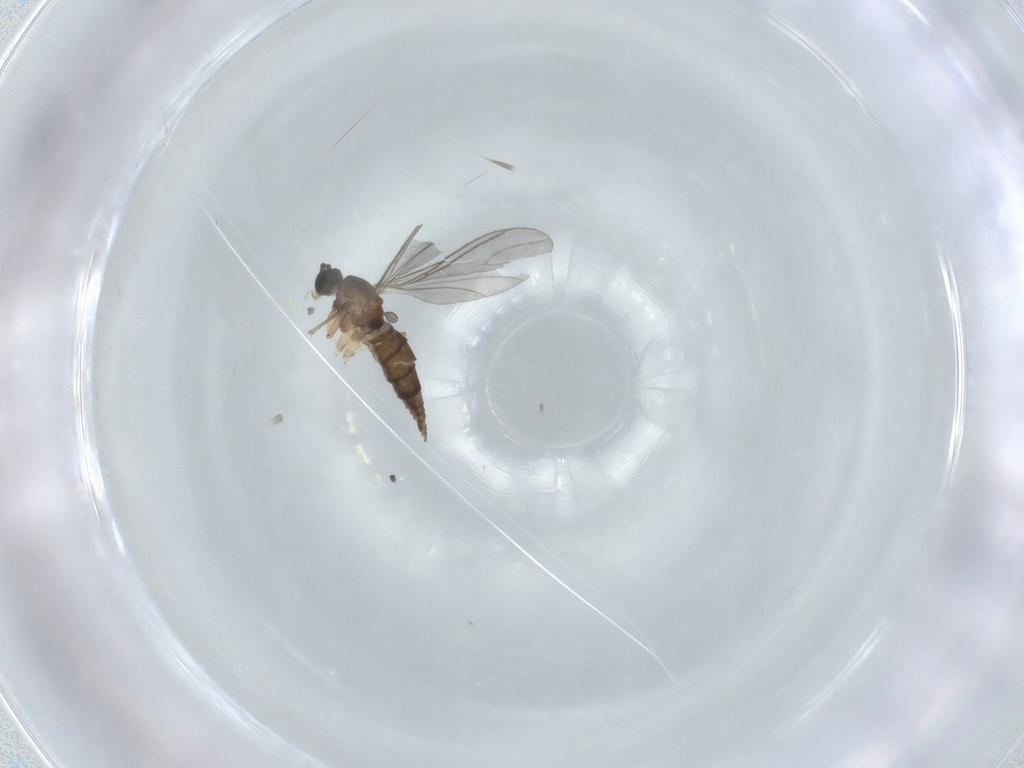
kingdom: Animalia
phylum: Arthropoda
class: Insecta
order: Diptera
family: Sciaridae
